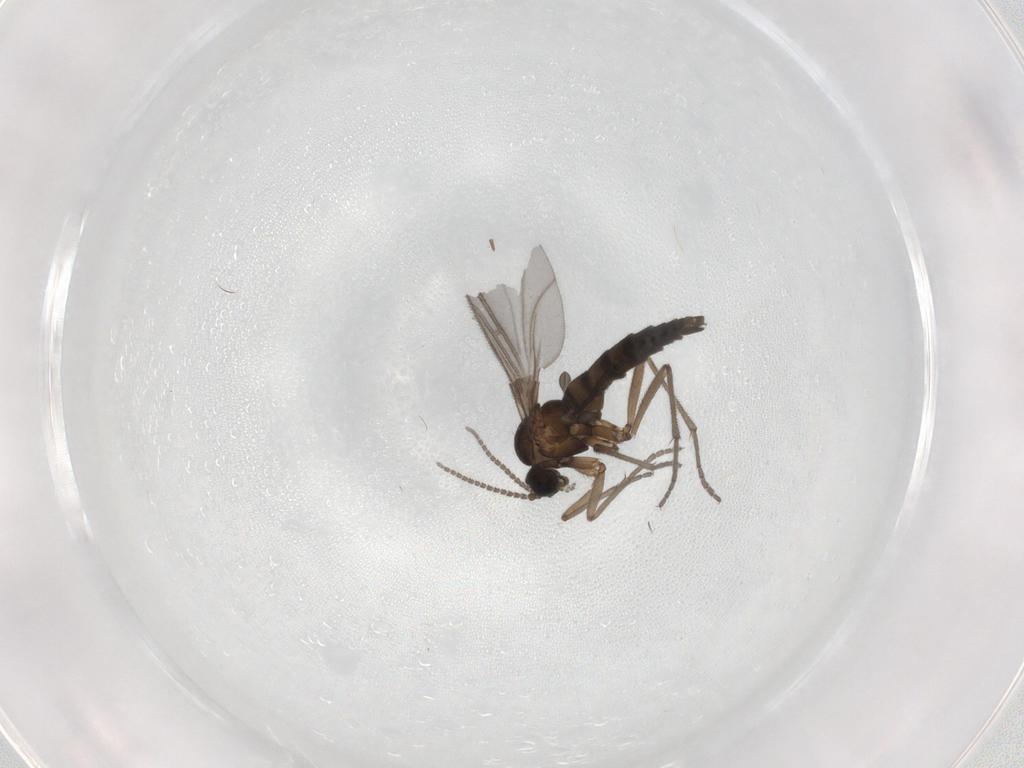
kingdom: Animalia
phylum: Arthropoda
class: Insecta
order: Diptera
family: Sciaridae
